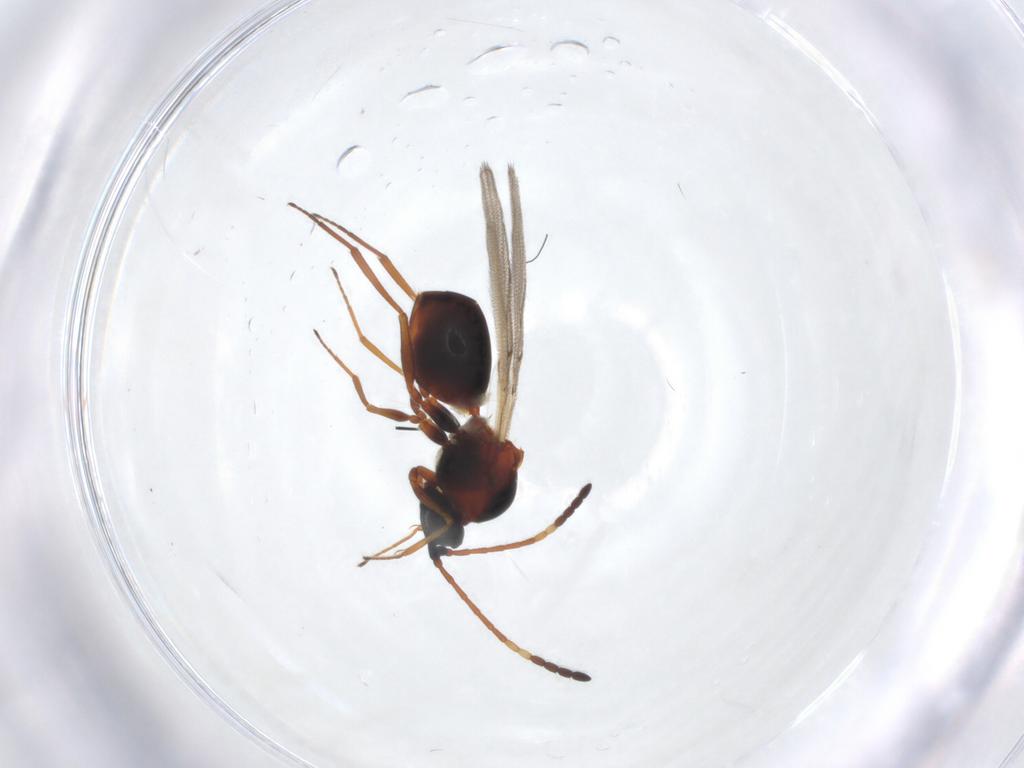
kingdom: Animalia
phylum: Arthropoda
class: Insecta
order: Hymenoptera
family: Figitidae
